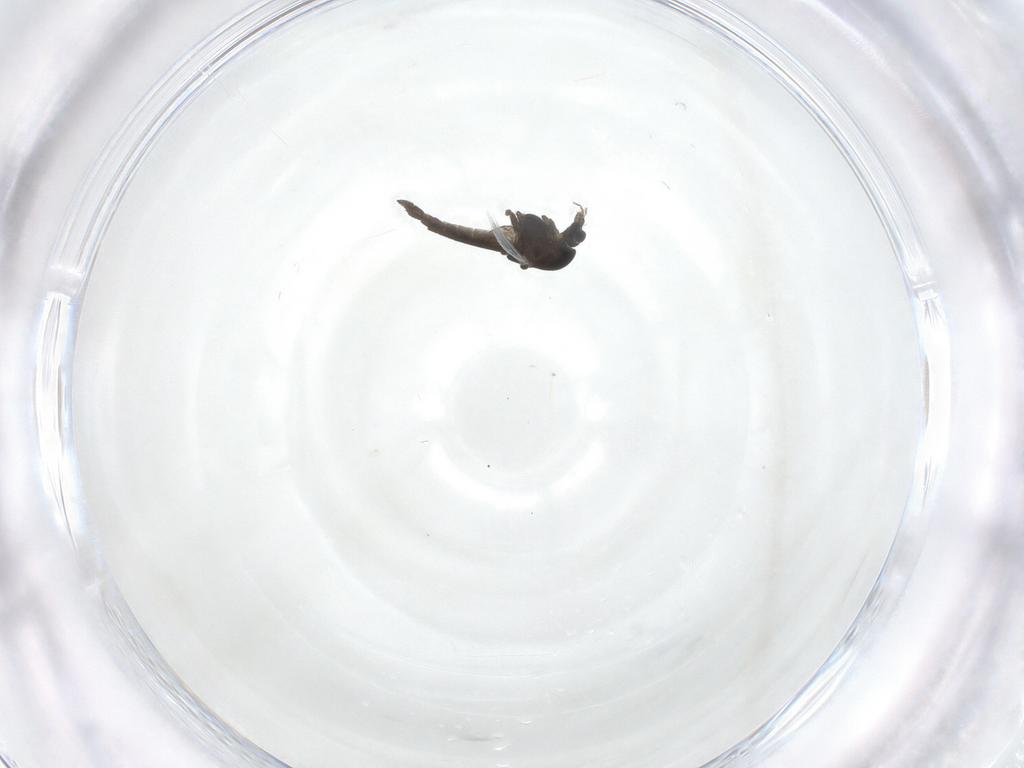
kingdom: Animalia
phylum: Arthropoda
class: Insecta
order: Diptera
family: Chironomidae
